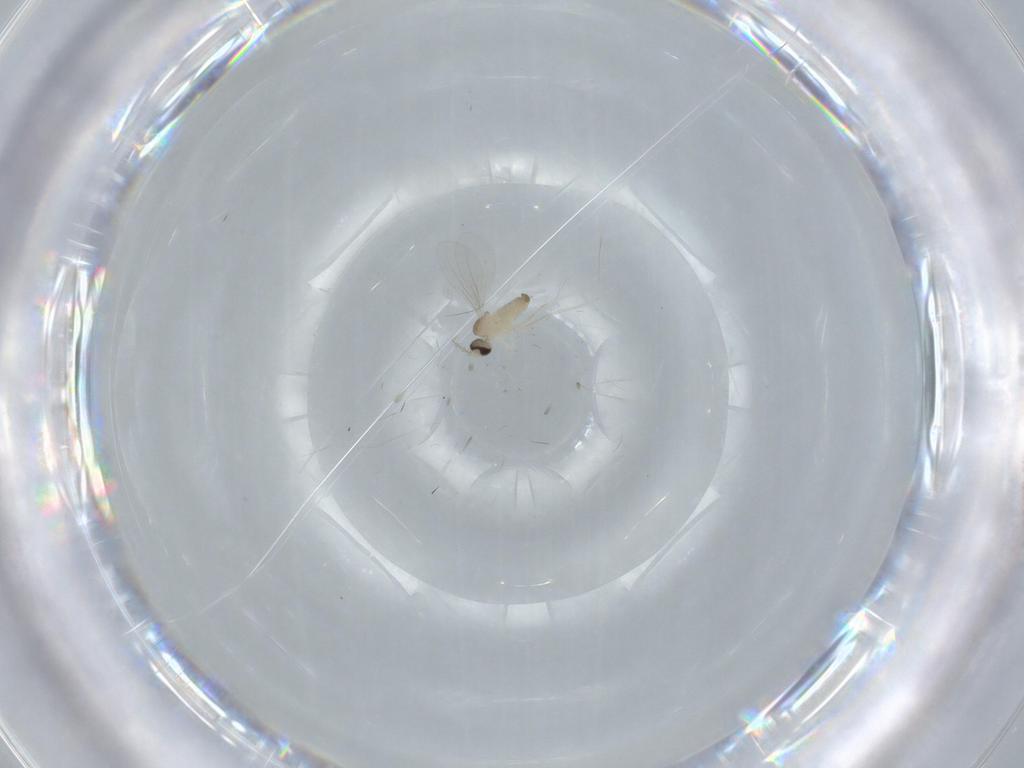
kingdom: Animalia
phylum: Arthropoda
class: Insecta
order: Diptera
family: Cecidomyiidae
